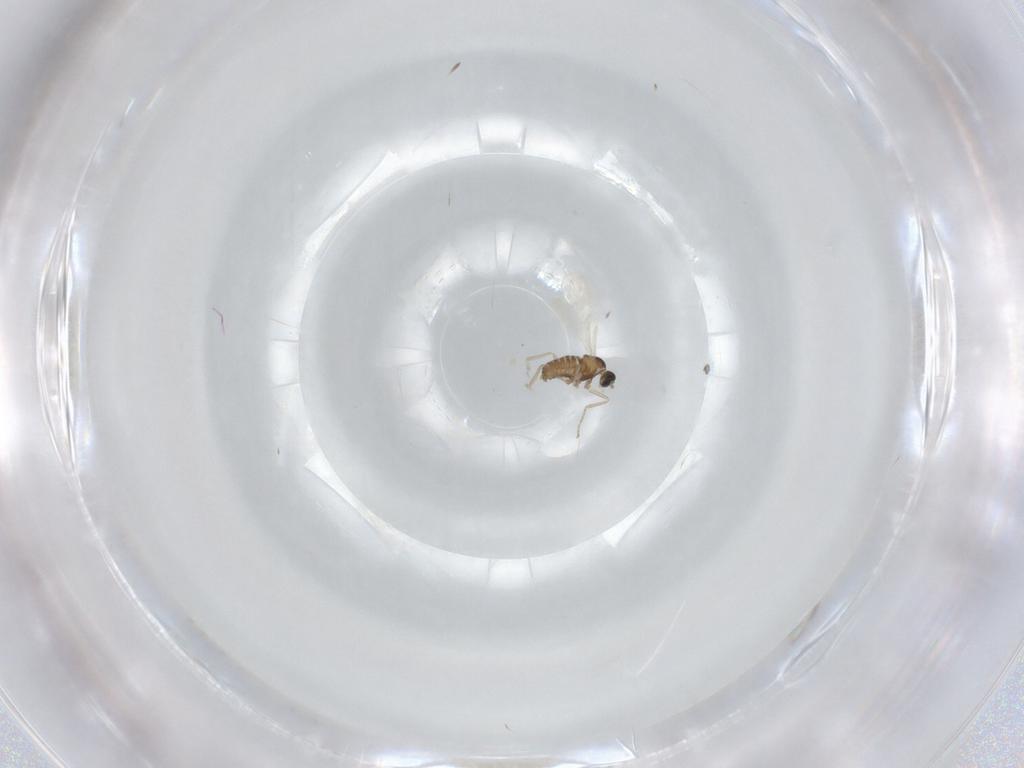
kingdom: Animalia
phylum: Arthropoda
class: Insecta
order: Diptera
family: Cecidomyiidae
